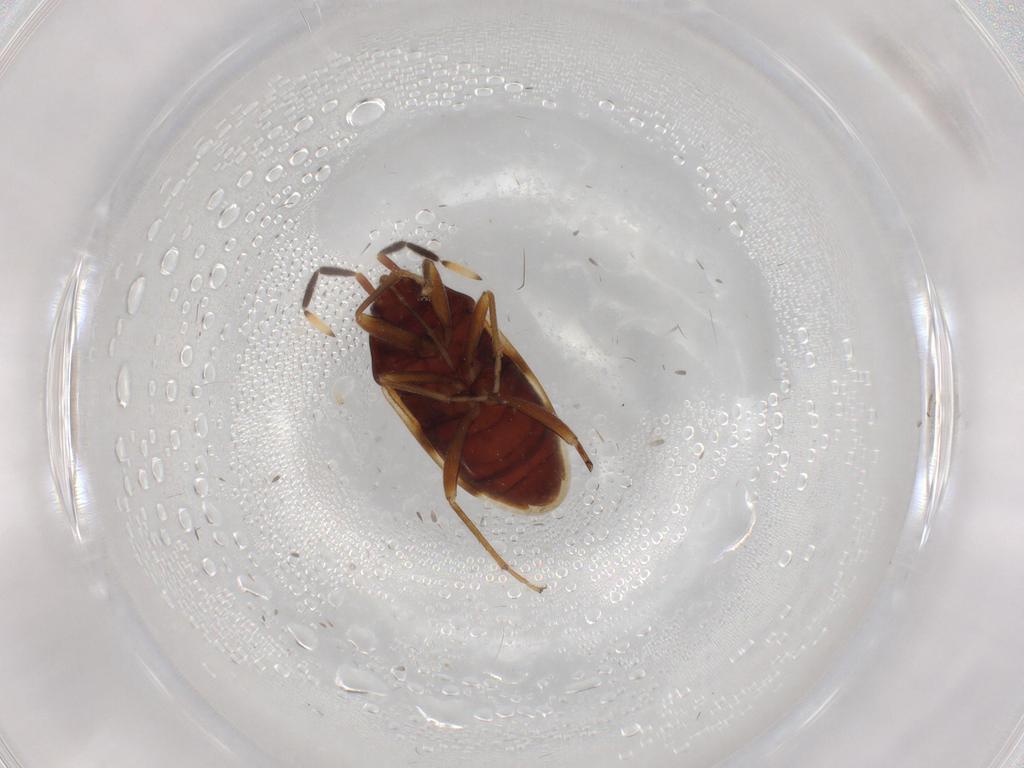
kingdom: Animalia
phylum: Arthropoda
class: Insecta
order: Hemiptera
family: Rhyparochromidae
